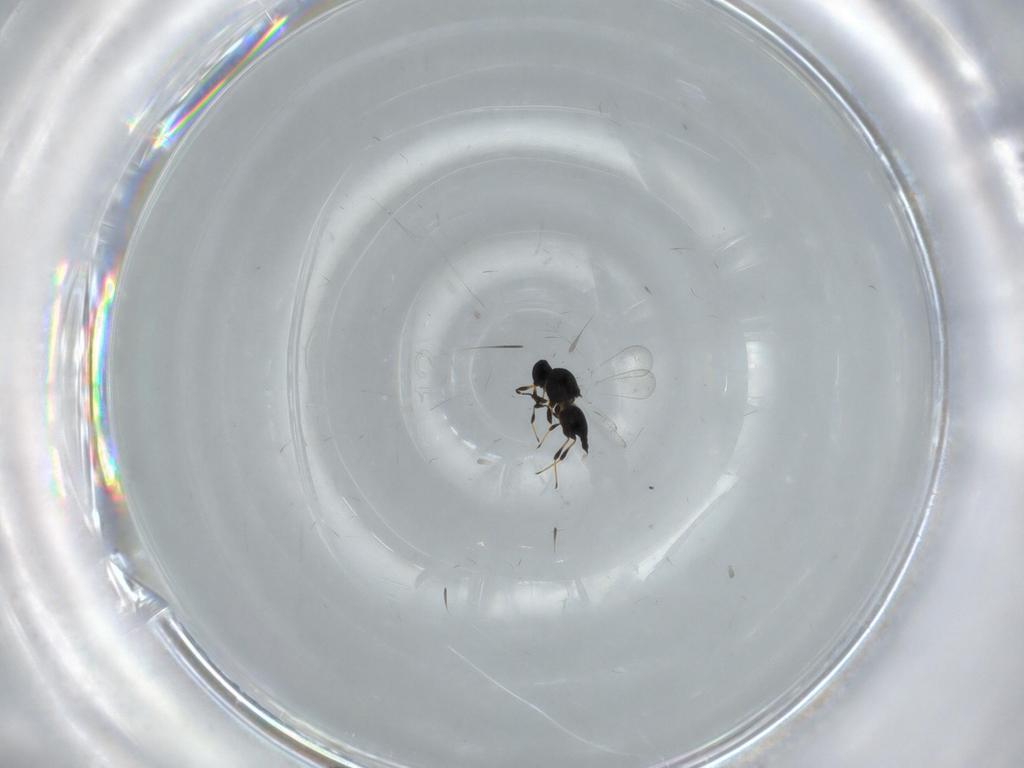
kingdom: Animalia
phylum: Arthropoda
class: Insecta
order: Hymenoptera
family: Platygastridae
